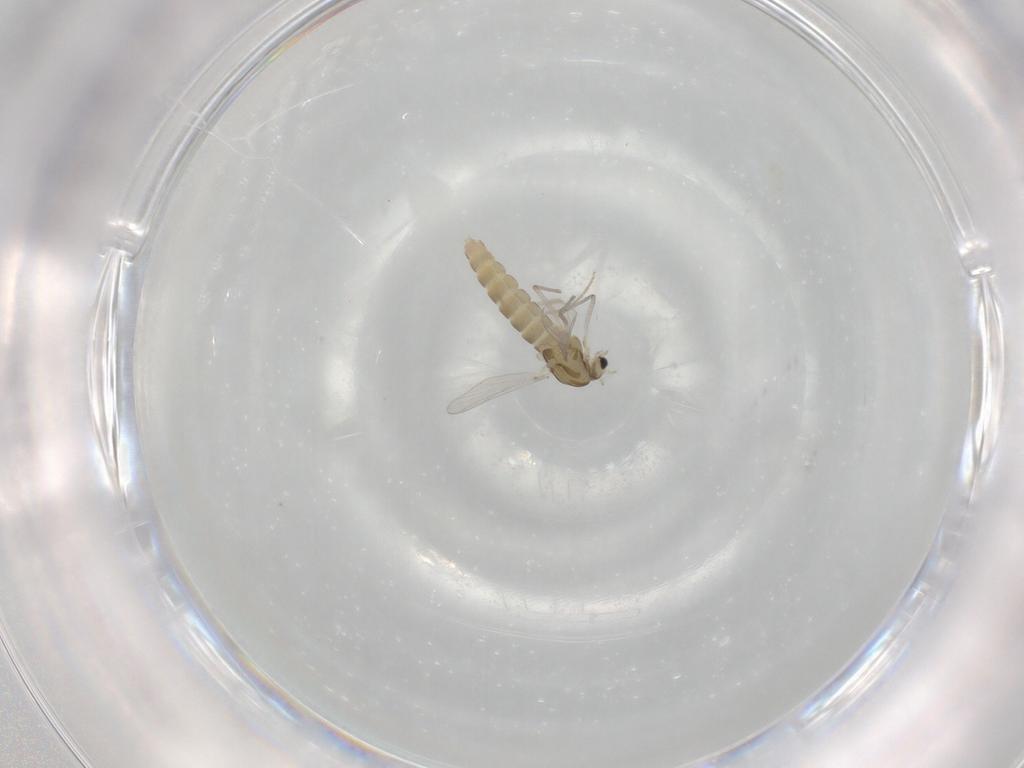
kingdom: Animalia
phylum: Arthropoda
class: Insecta
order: Diptera
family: Chironomidae
